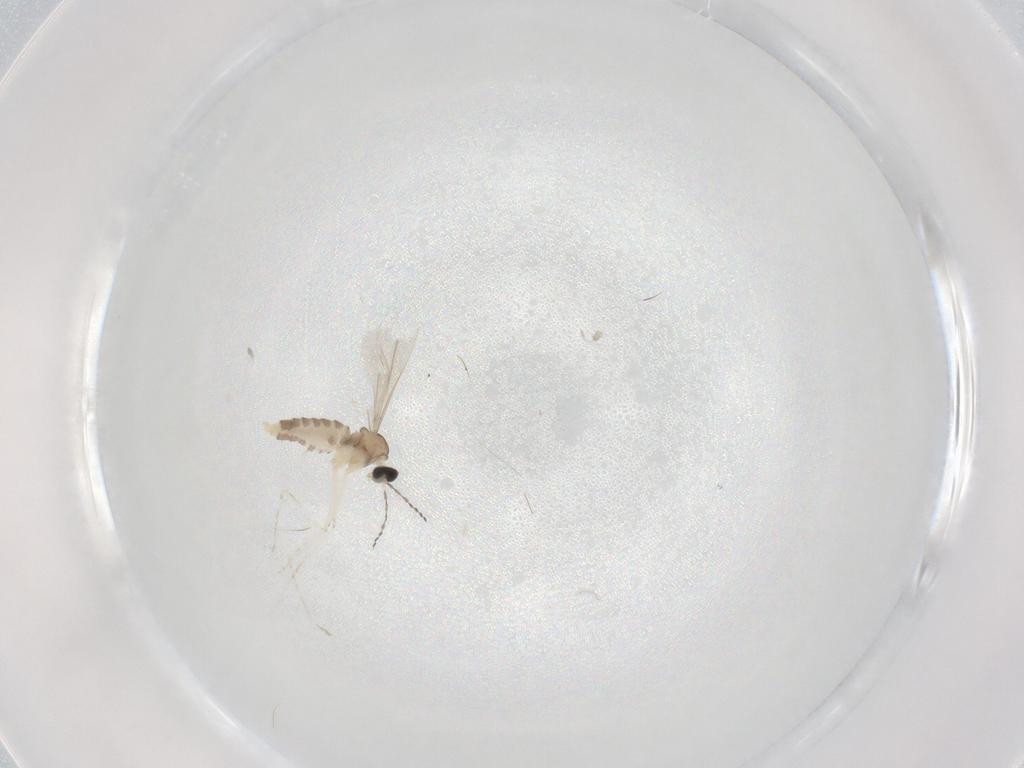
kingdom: Animalia
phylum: Arthropoda
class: Insecta
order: Diptera
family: Cecidomyiidae
